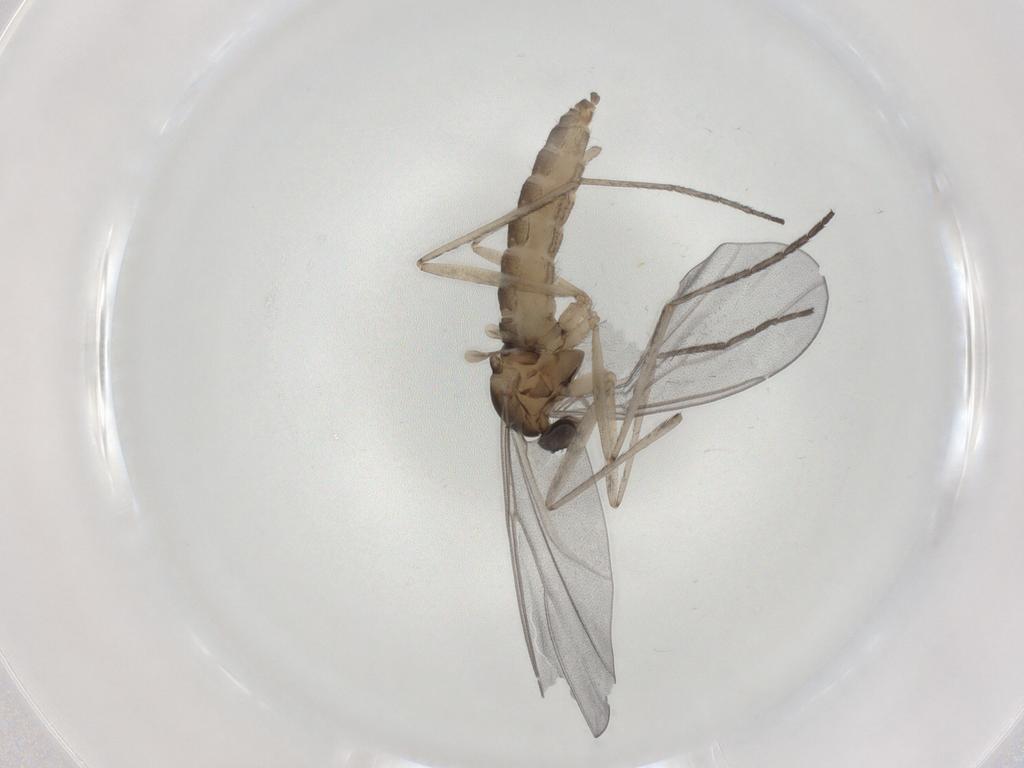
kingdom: Animalia
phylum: Arthropoda
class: Insecta
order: Diptera
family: Cecidomyiidae
